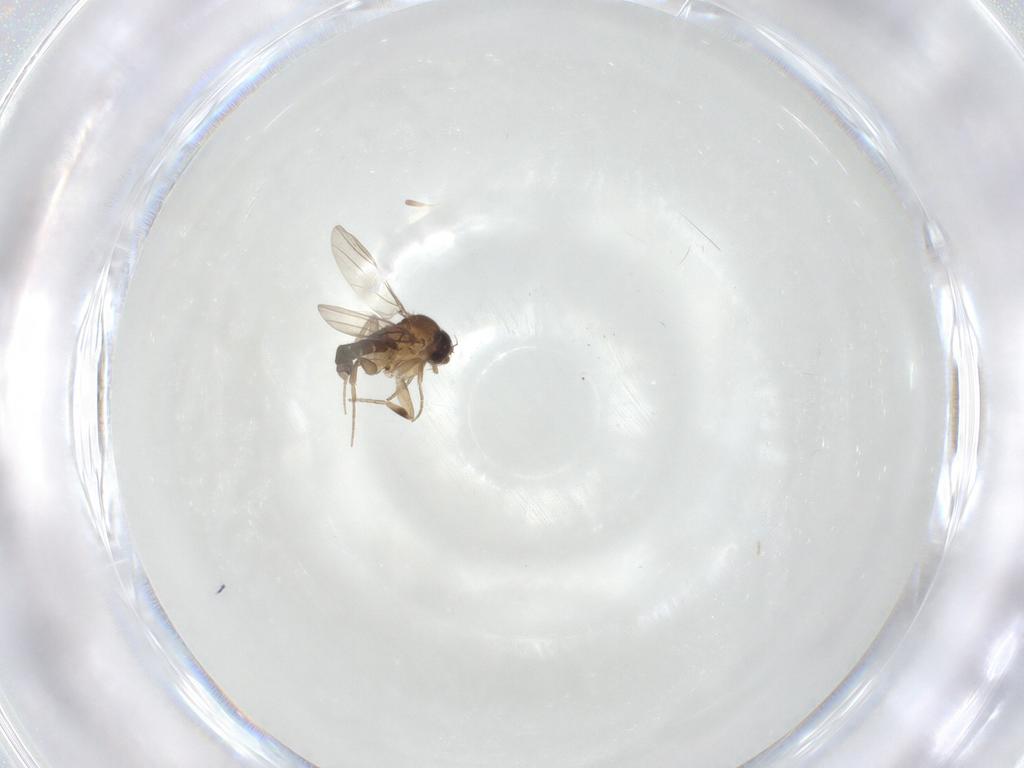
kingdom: Animalia
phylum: Arthropoda
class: Insecta
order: Diptera
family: Phoridae
